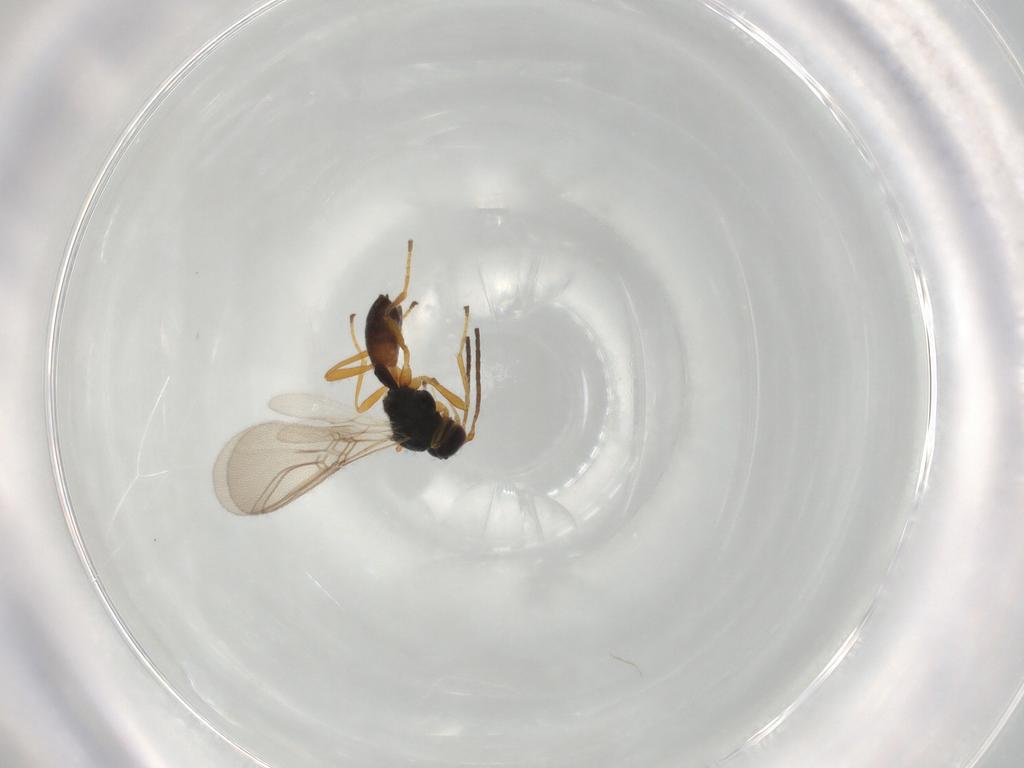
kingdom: Animalia
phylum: Arthropoda
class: Insecta
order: Hymenoptera
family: Braconidae
